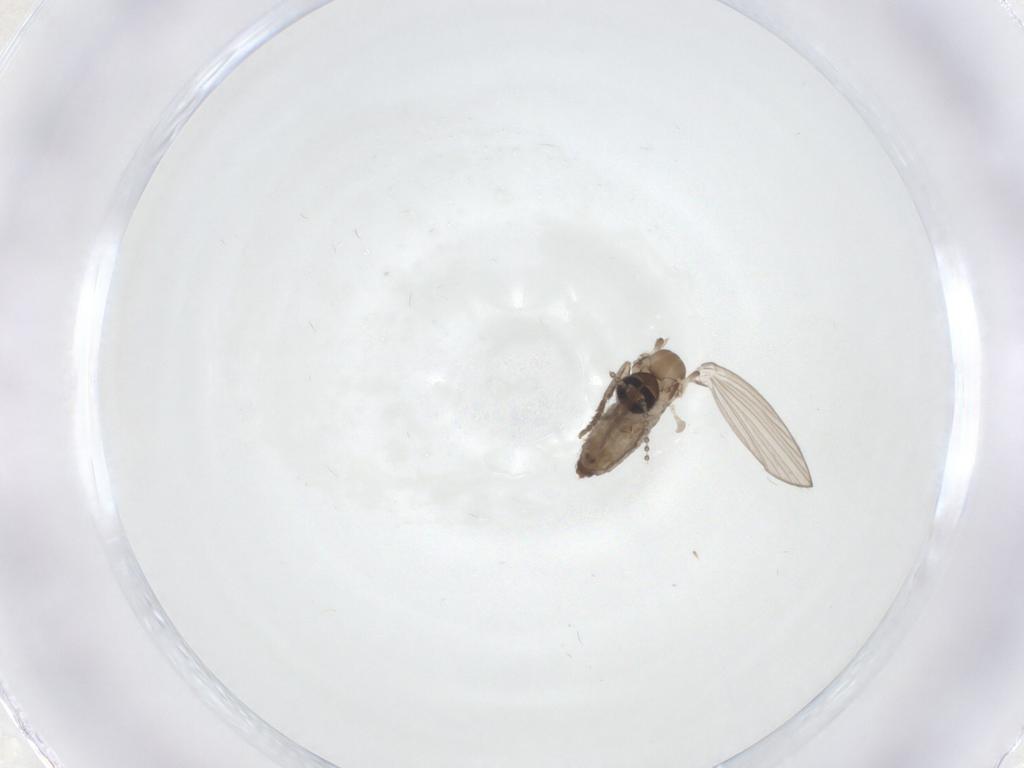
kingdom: Animalia
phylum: Arthropoda
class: Insecta
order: Diptera
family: Psychodidae
